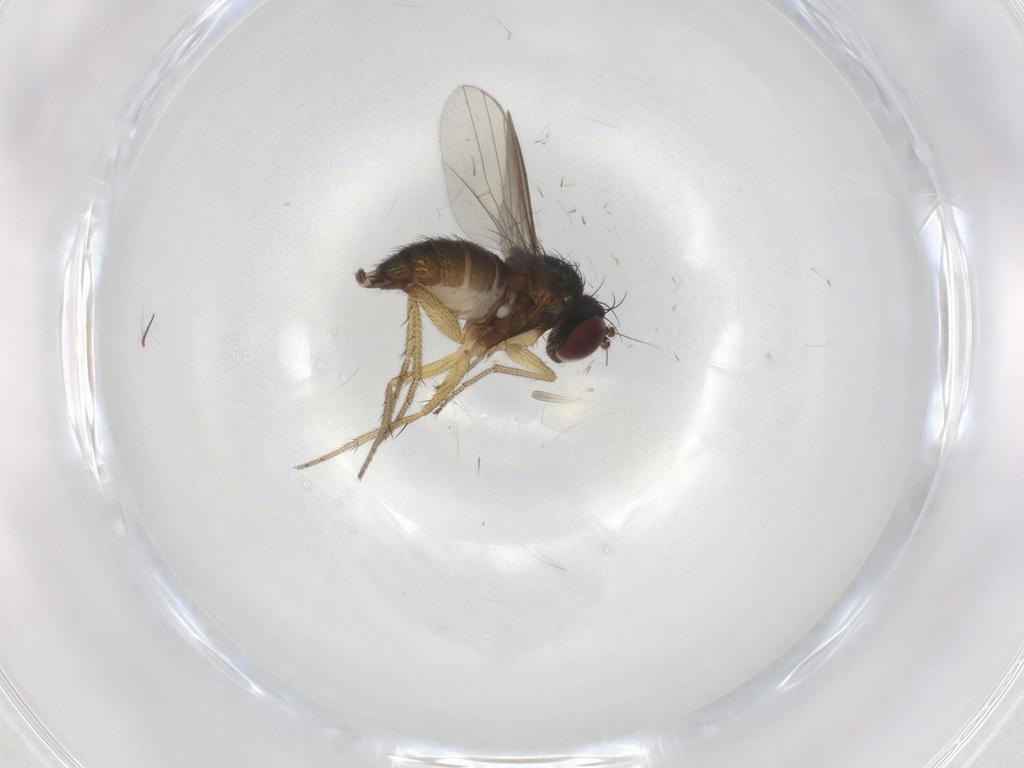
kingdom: Animalia
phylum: Arthropoda
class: Insecta
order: Diptera
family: Chironomidae
